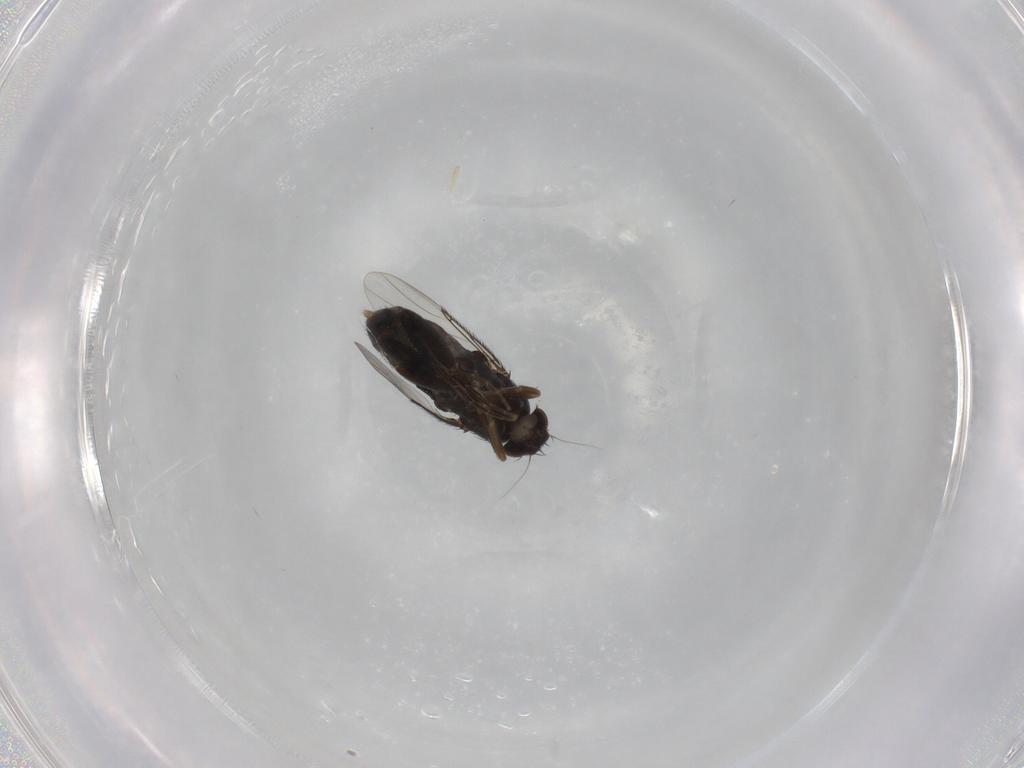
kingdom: Animalia
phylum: Arthropoda
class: Insecta
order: Diptera
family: Phoridae
